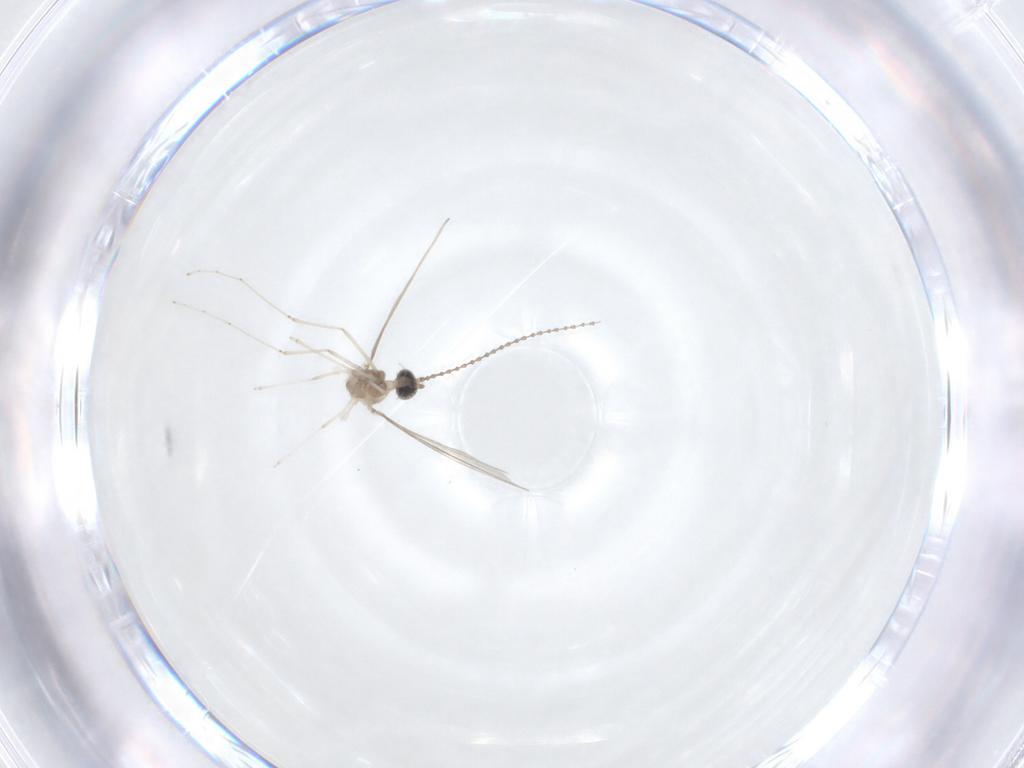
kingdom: Animalia
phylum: Arthropoda
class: Insecta
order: Diptera
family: Cecidomyiidae
